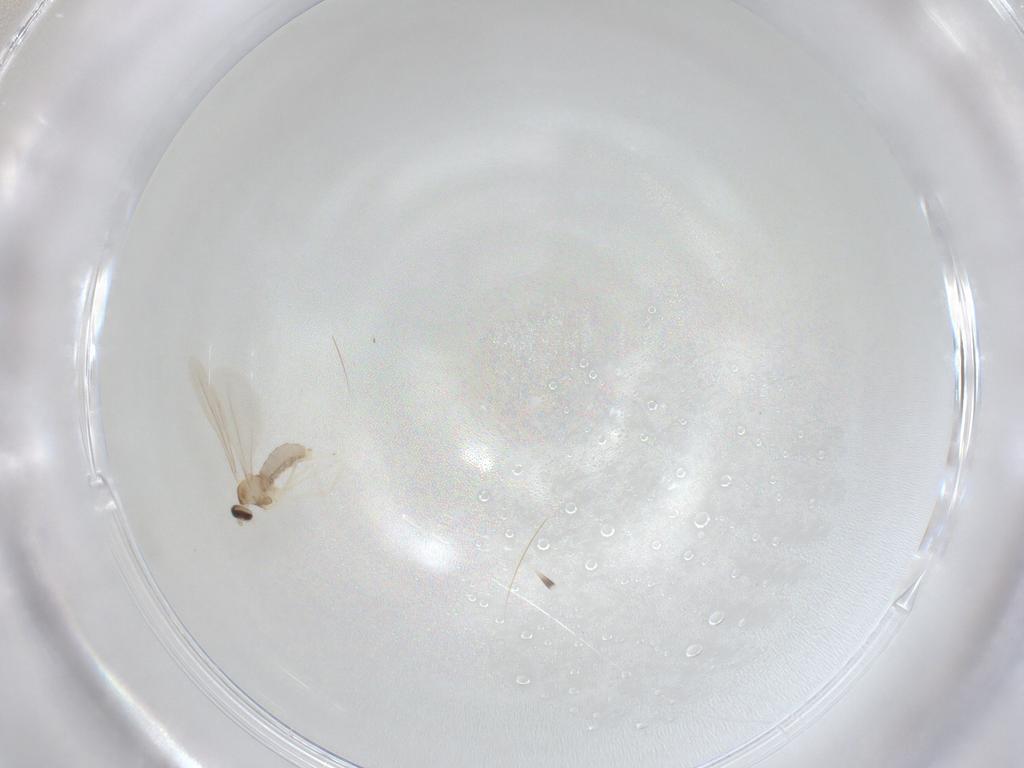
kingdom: Animalia
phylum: Arthropoda
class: Insecta
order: Diptera
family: Cecidomyiidae
